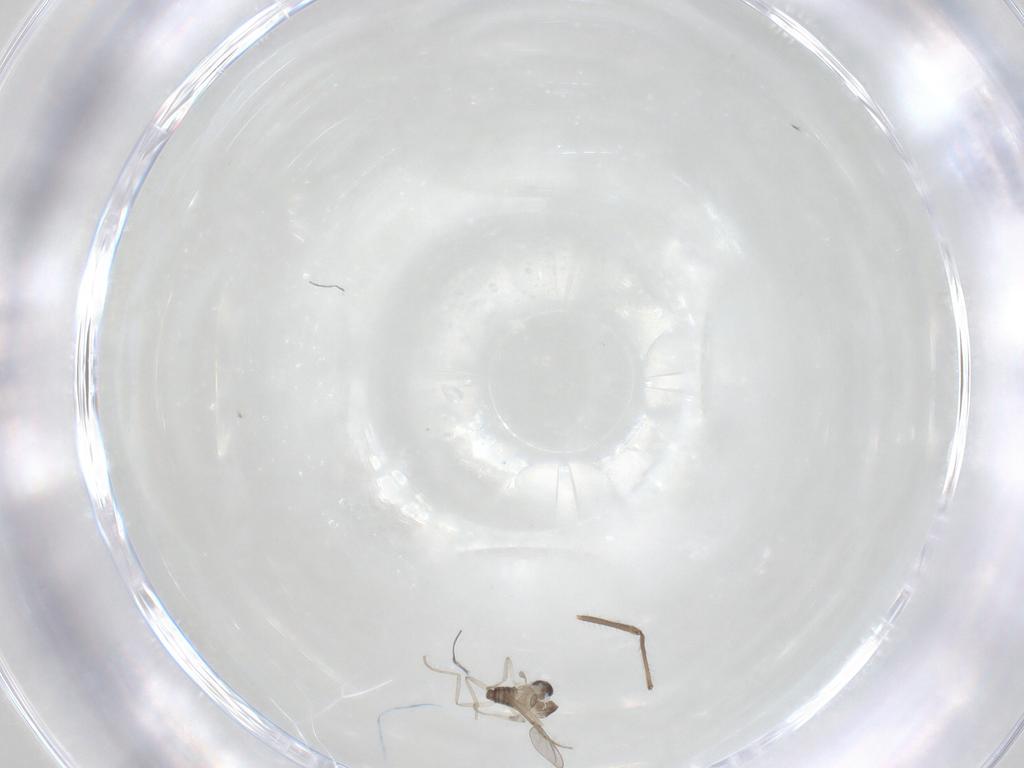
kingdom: Animalia
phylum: Arthropoda
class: Insecta
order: Diptera
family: Chironomidae
